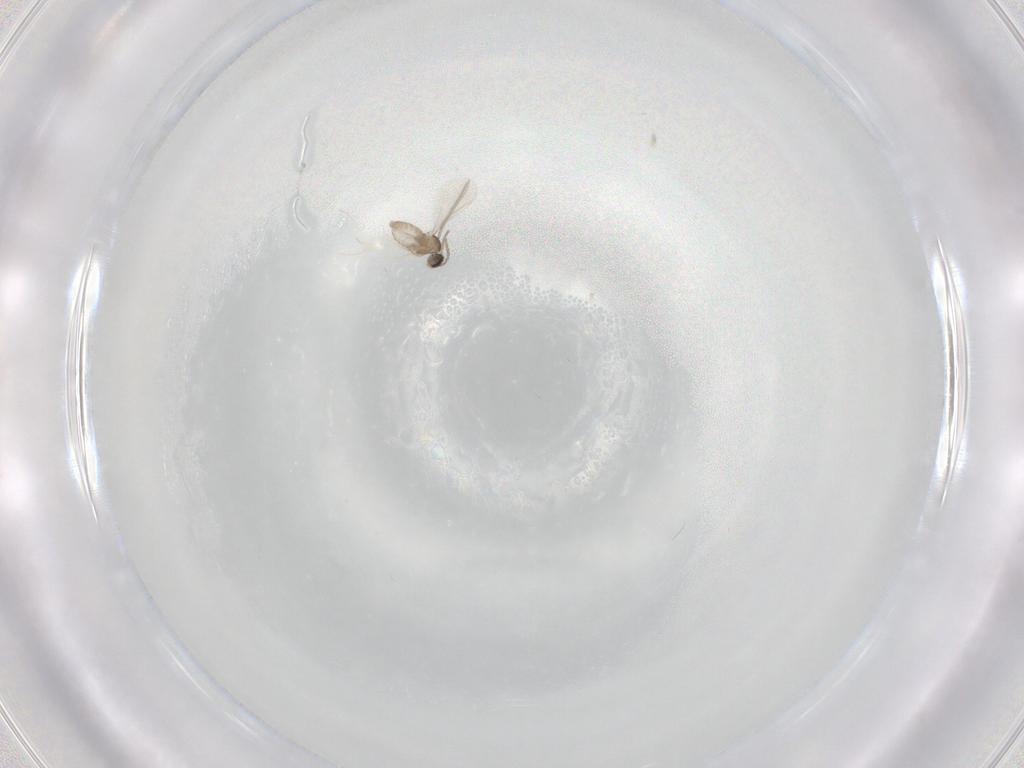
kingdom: Animalia
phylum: Arthropoda
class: Insecta
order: Diptera
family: Cecidomyiidae
